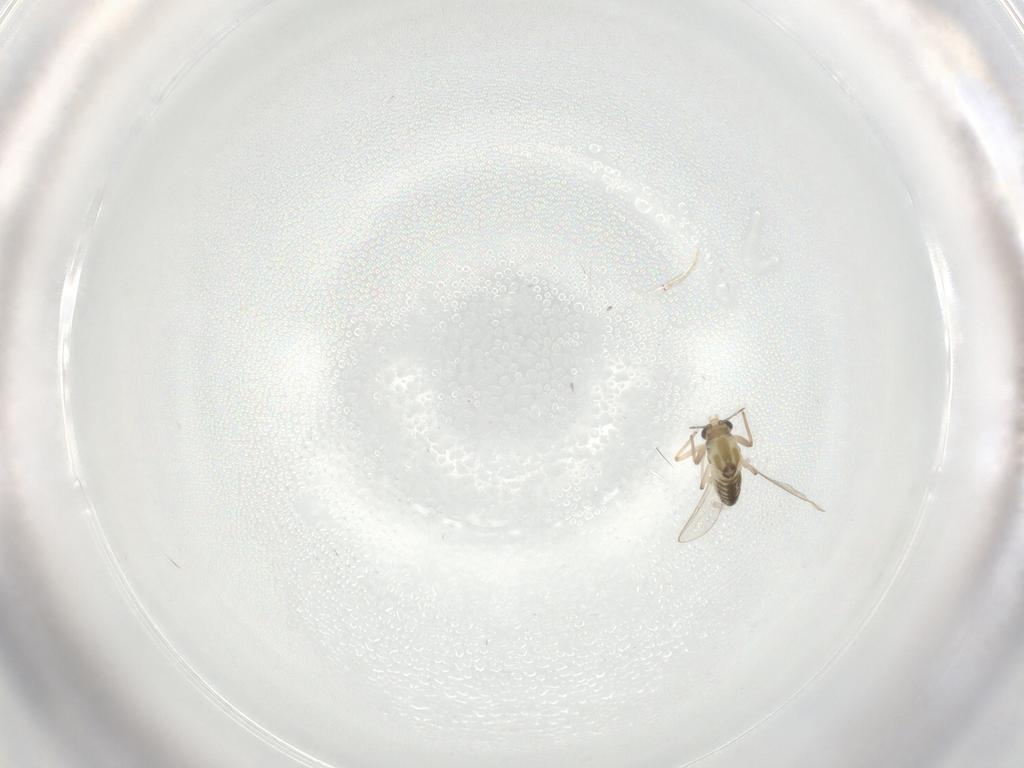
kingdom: Animalia
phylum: Arthropoda
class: Insecta
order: Diptera
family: Chironomidae
